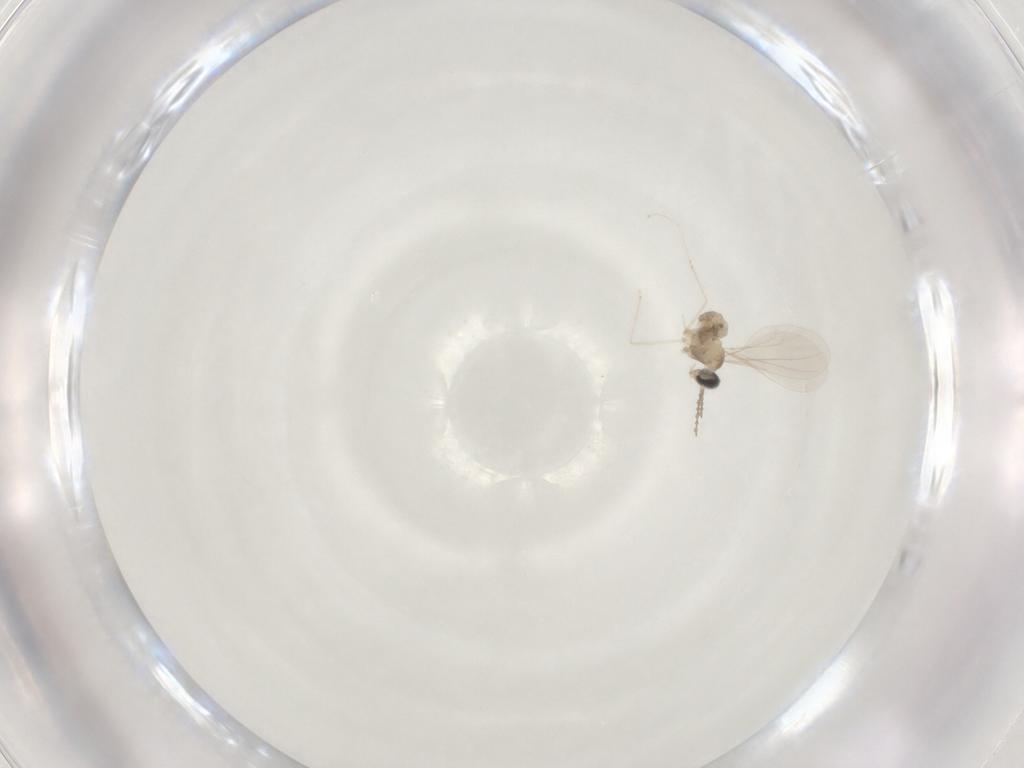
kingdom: Animalia
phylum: Arthropoda
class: Insecta
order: Diptera
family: Cecidomyiidae
